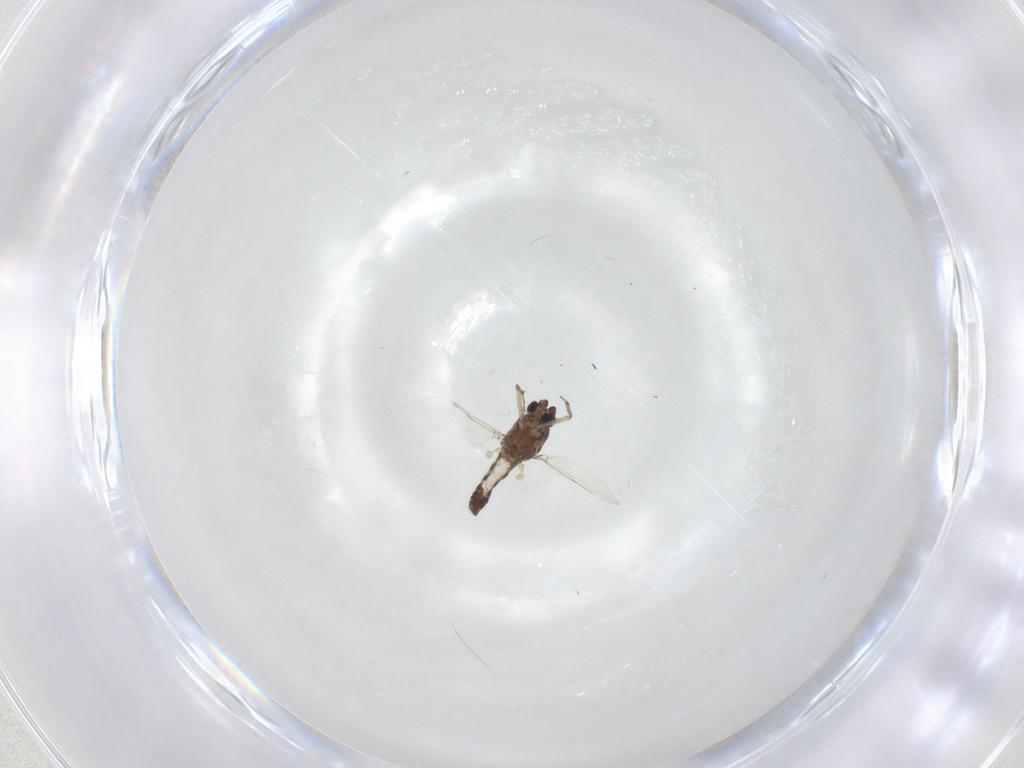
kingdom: Animalia
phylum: Arthropoda
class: Insecta
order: Diptera
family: Ceratopogonidae
